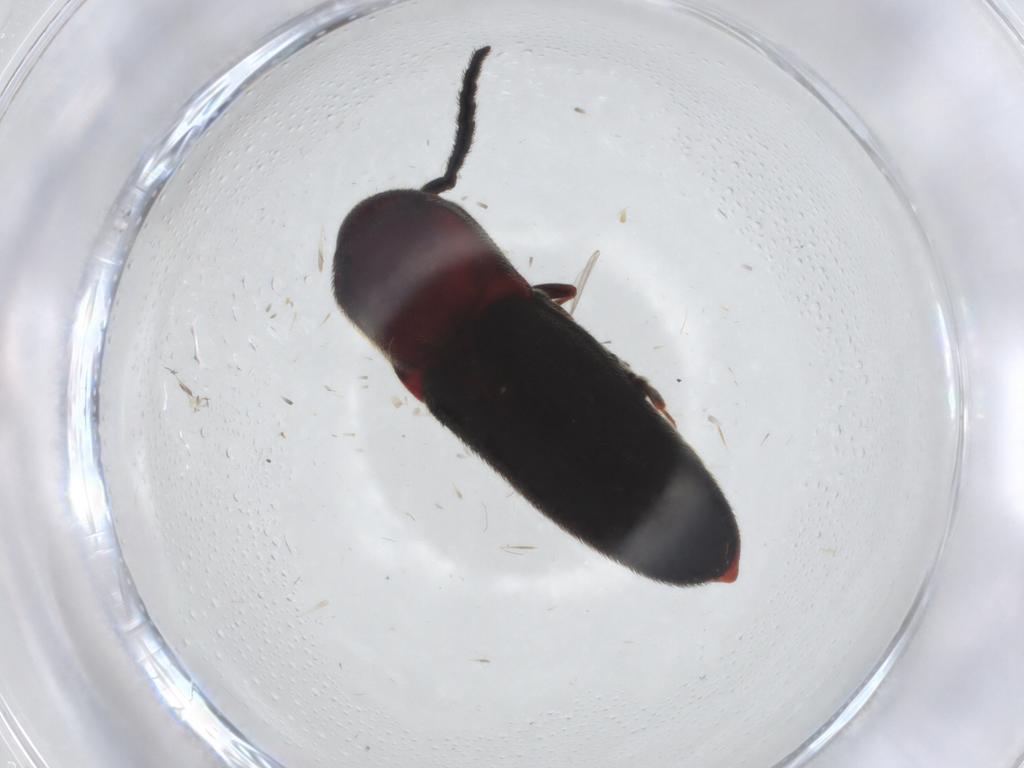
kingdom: Animalia
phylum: Arthropoda
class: Insecta
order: Coleoptera
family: Eucnemidae
